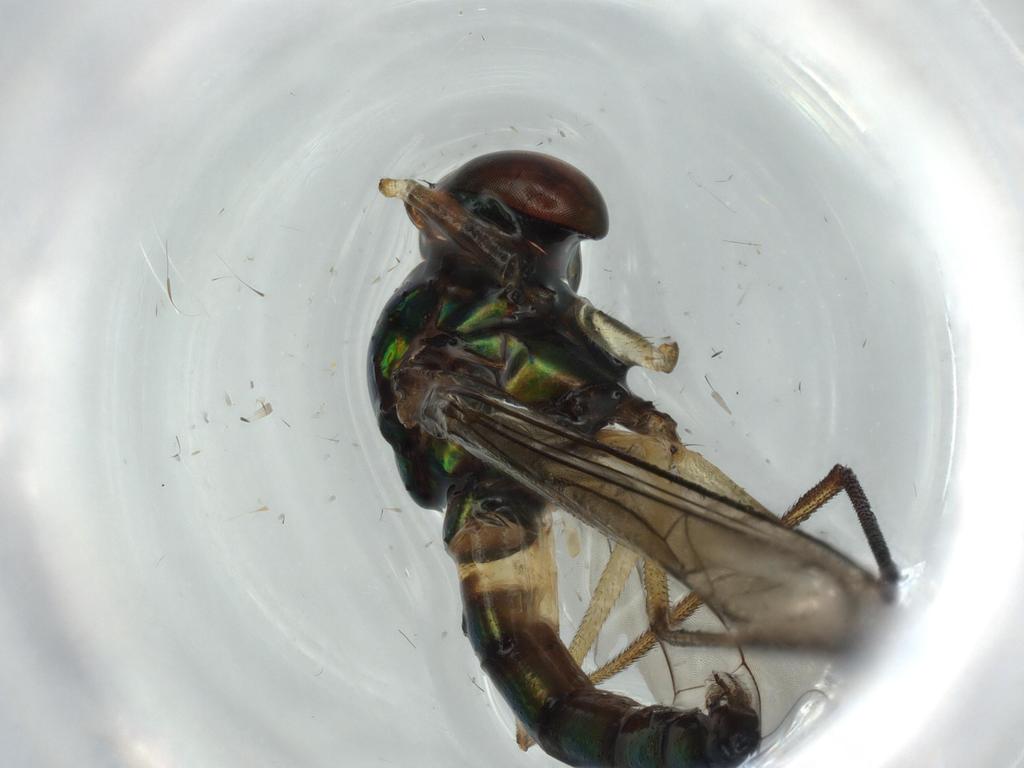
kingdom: Animalia
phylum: Arthropoda
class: Insecta
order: Diptera
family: Dolichopodidae
